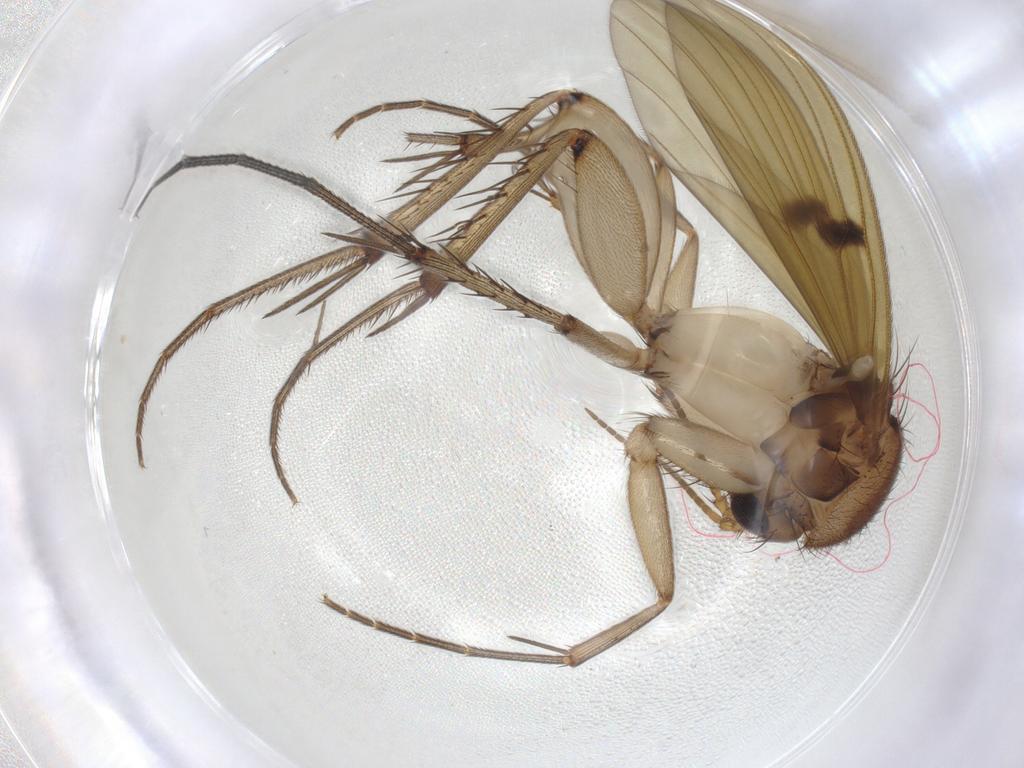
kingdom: Animalia
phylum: Arthropoda
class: Insecta
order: Diptera
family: Mycetophilidae
